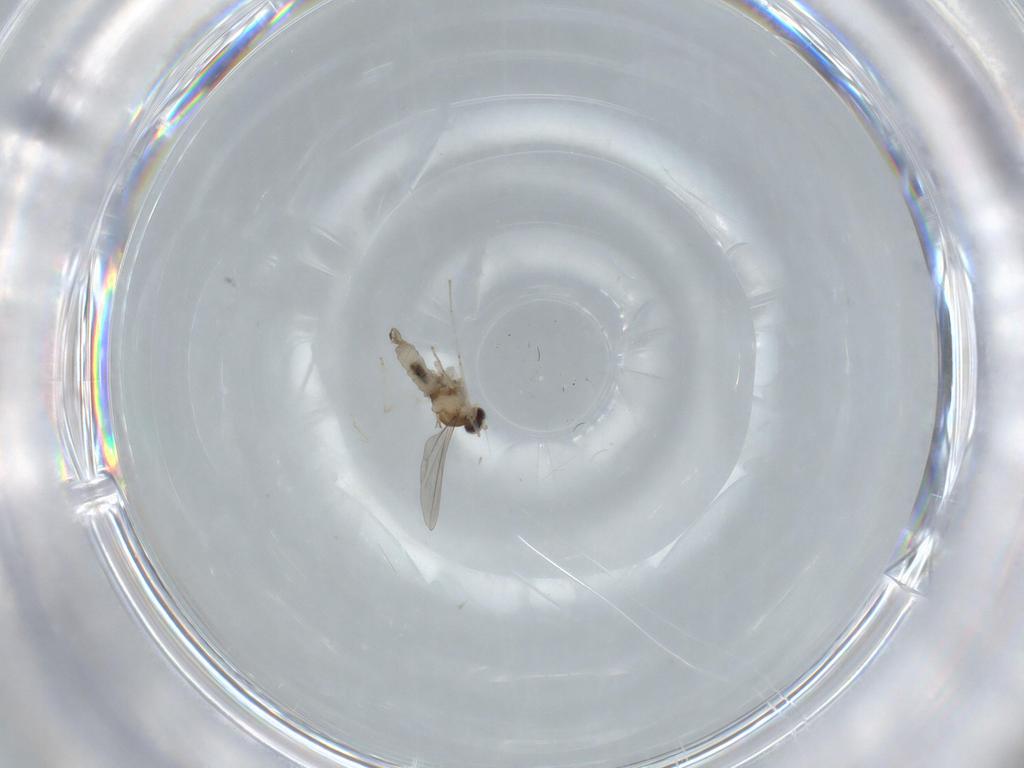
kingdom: Animalia
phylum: Arthropoda
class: Insecta
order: Diptera
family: Cecidomyiidae
